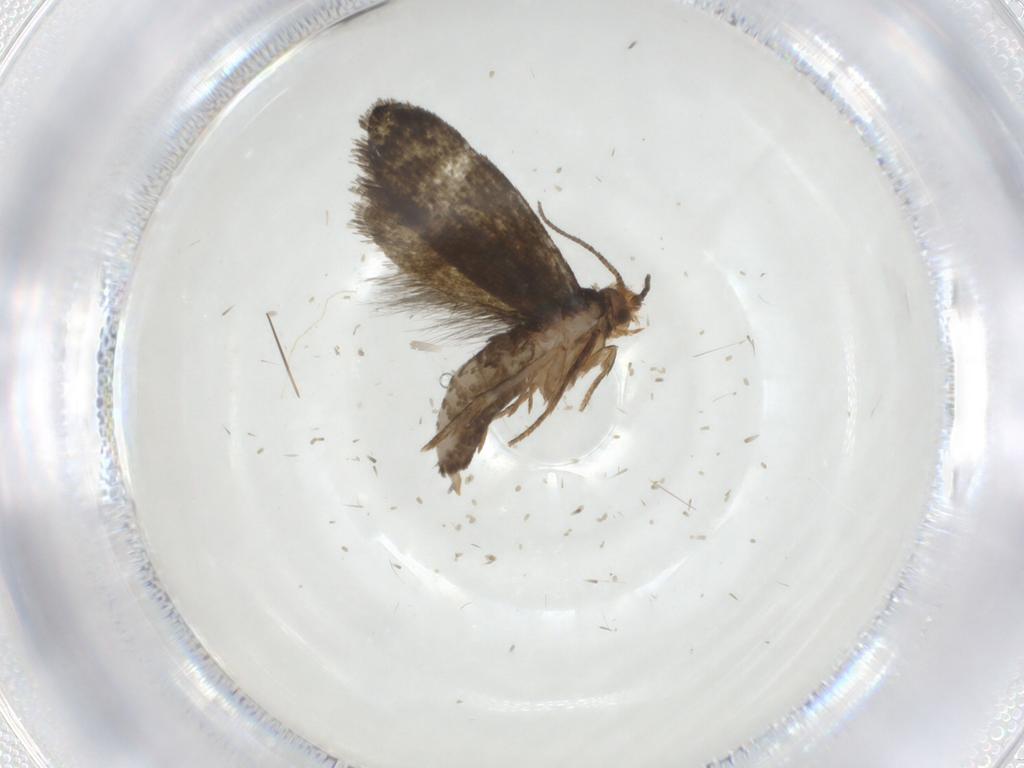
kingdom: Animalia
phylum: Arthropoda
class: Insecta
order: Lepidoptera
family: Tineidae
